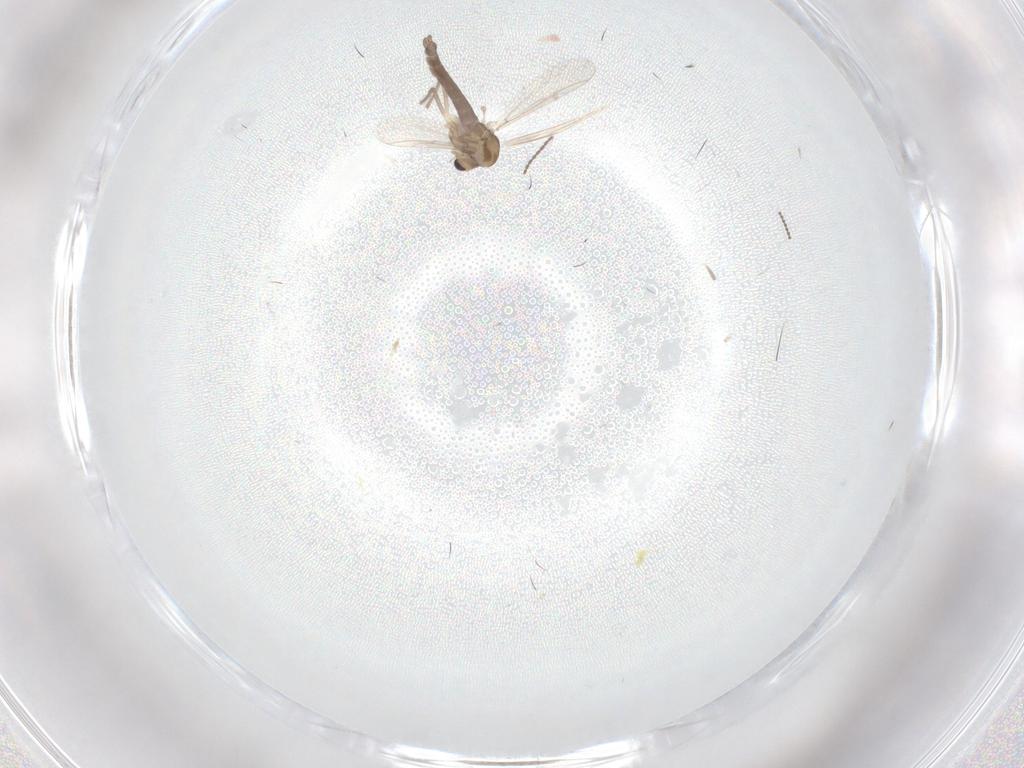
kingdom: Animalia
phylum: Arthropoda
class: Insecta
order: Diptera
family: Chironomidae
